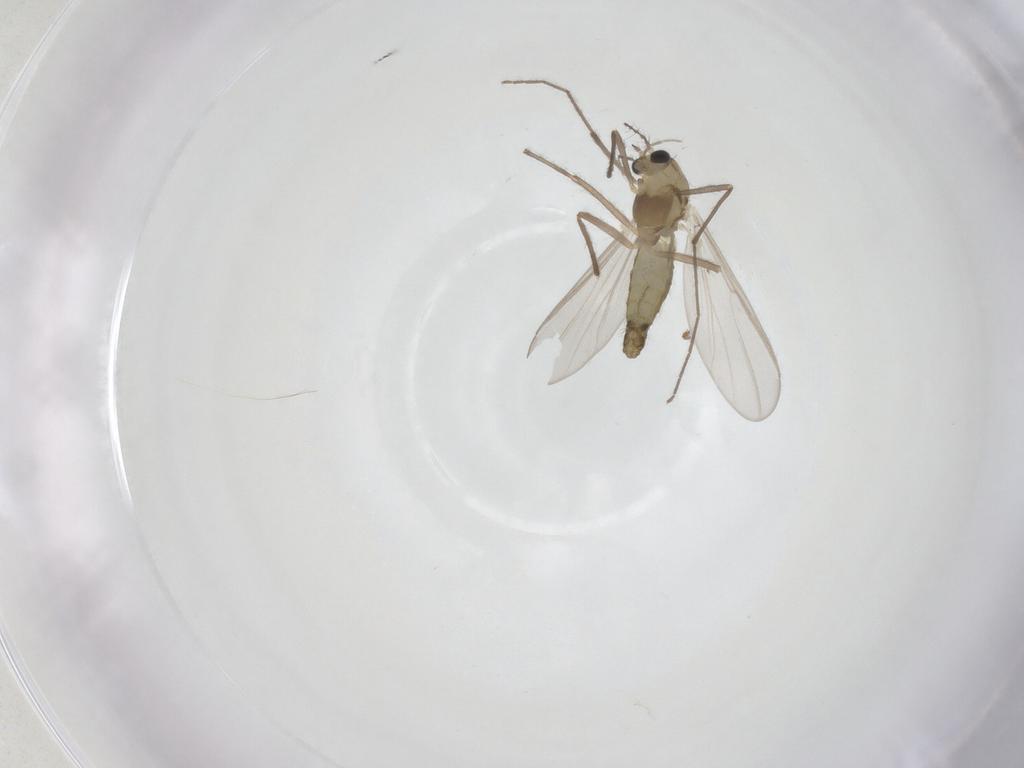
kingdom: Animalia
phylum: Arthropoda
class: Insecta
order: Diptera
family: Chironomidae
